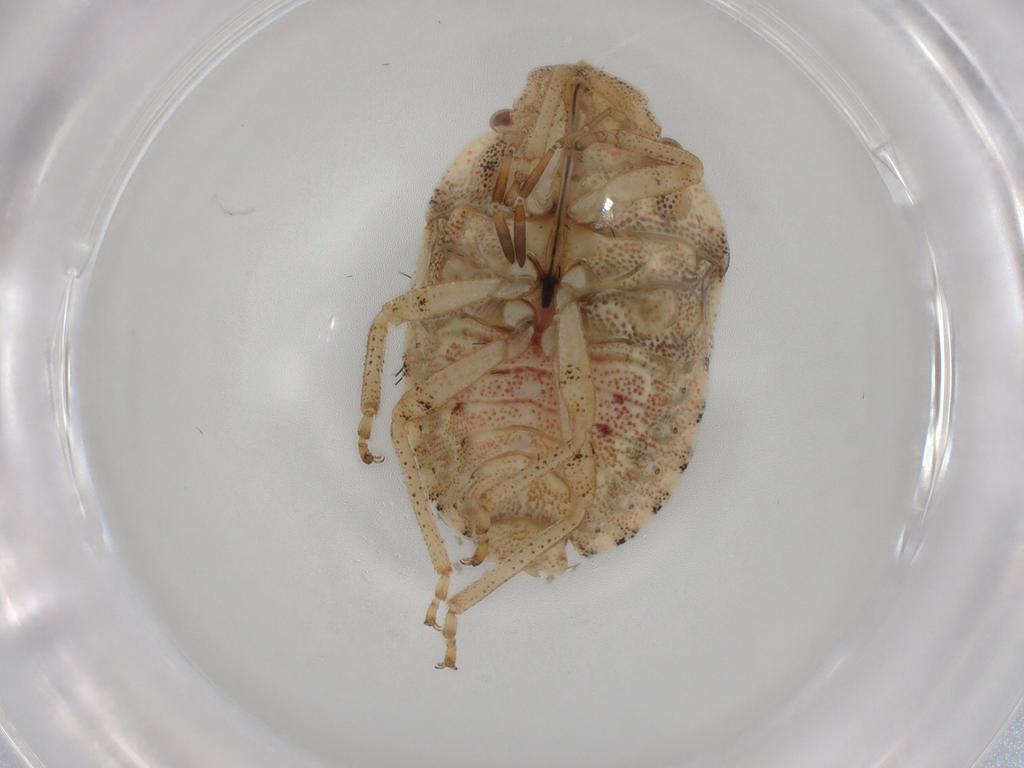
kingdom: Animalia
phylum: Arthropoda
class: Insecta
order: Hemiptera
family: Pentatomidae
